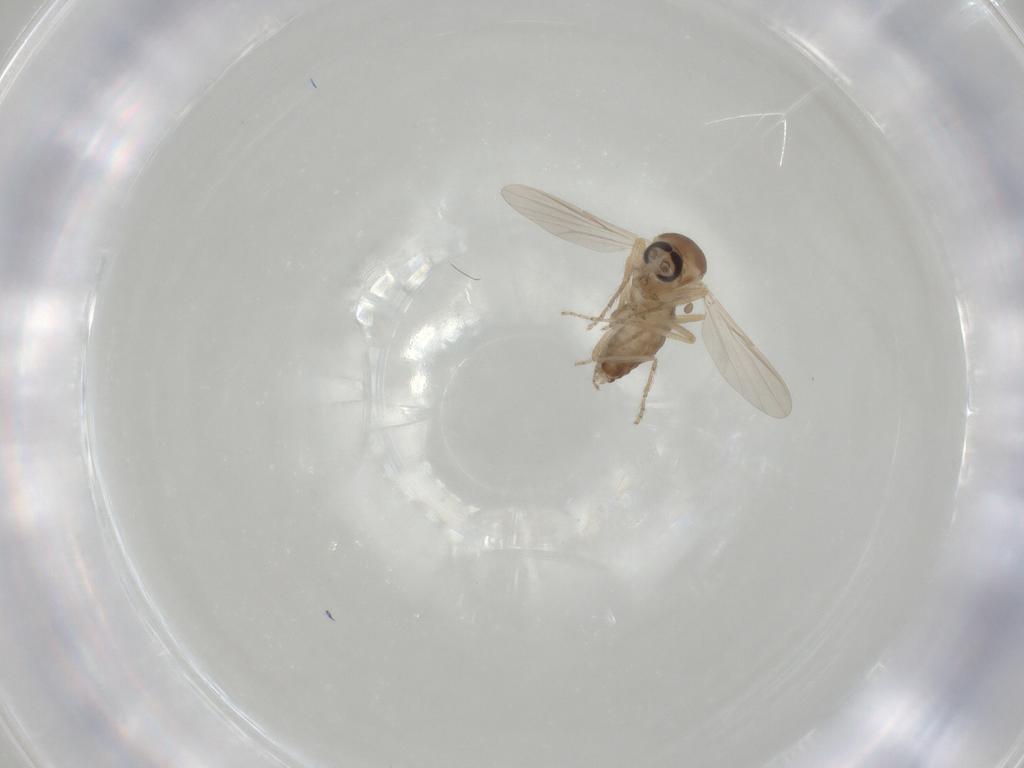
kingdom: Animalia
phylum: Arthropoda
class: Insecta
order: Diptera
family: Ceratopogonidae
